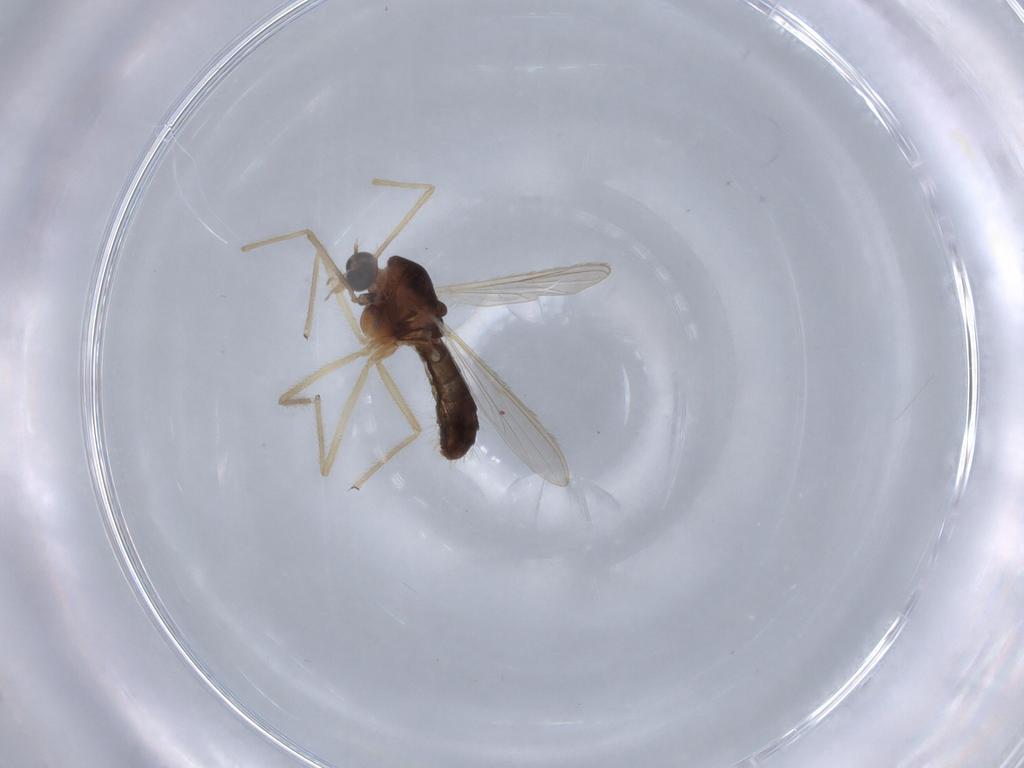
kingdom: Animalia
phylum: Arthropoda
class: Insecta
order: Diptera
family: Chironomidae
